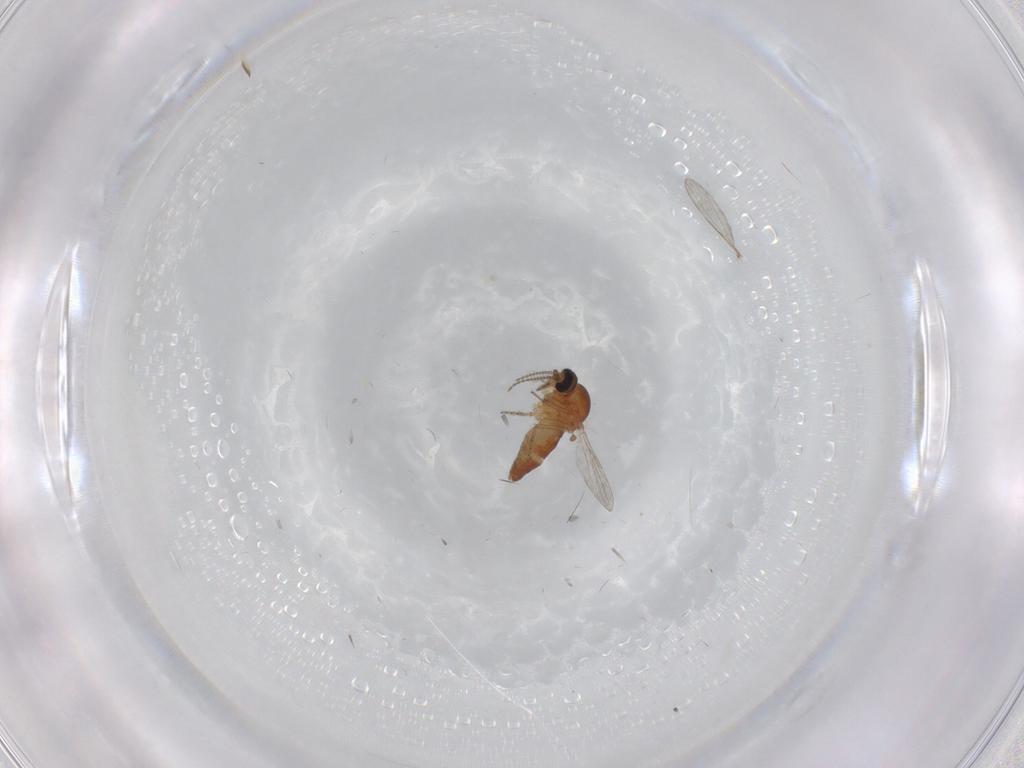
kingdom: Animalia
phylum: Arthropoda
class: Insecta
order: Diptera
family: Ceratopogonidae
